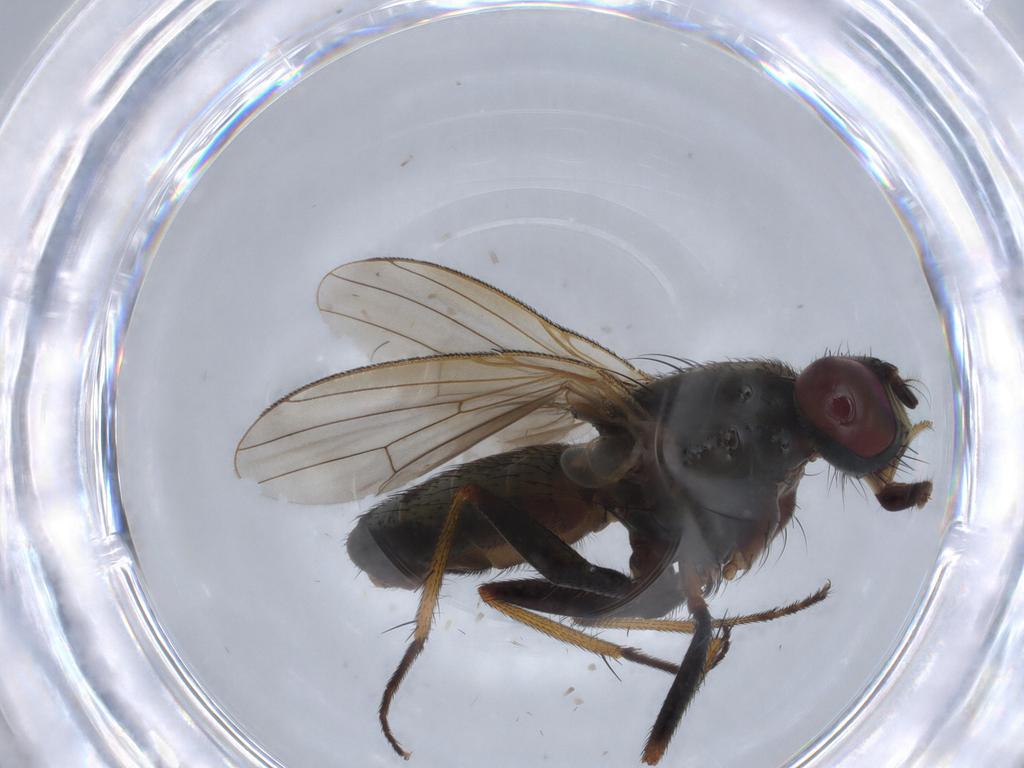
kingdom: Animalia
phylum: Arthropoda
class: Insecta
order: Diptera
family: Muscidae
